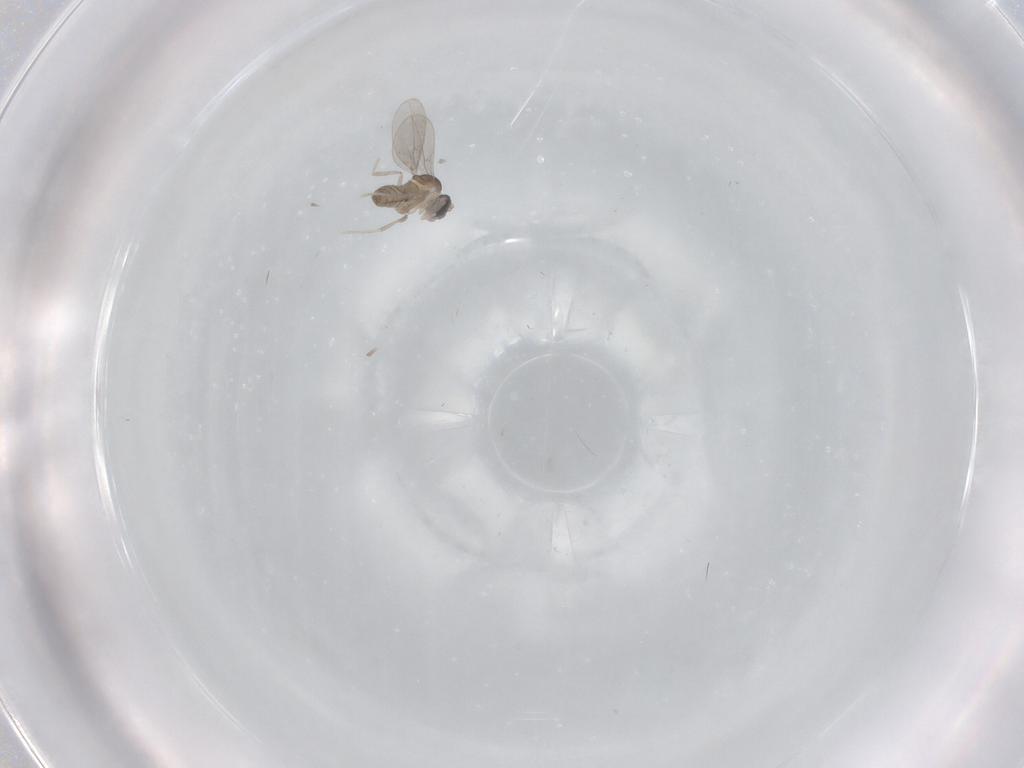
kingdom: Animalia
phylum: Arthropoda
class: Insecta
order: Diptera
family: Cecidomyiidae
